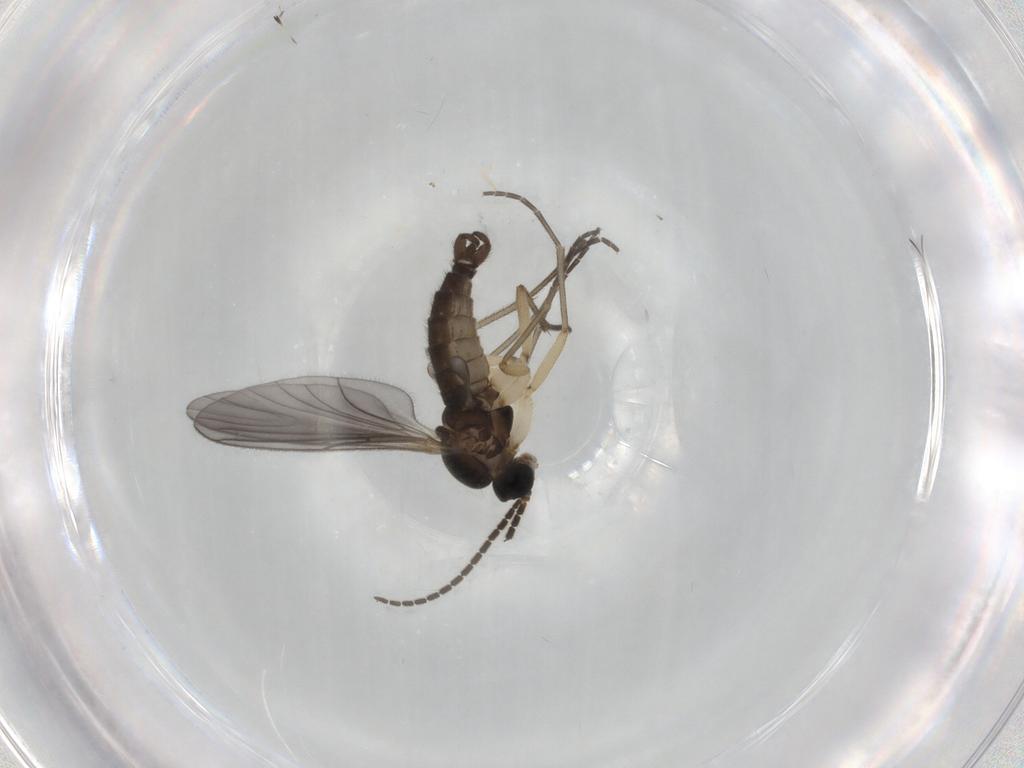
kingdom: Animalia
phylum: Arthropoda
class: Insecta
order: Diptera
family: Sciaridae
